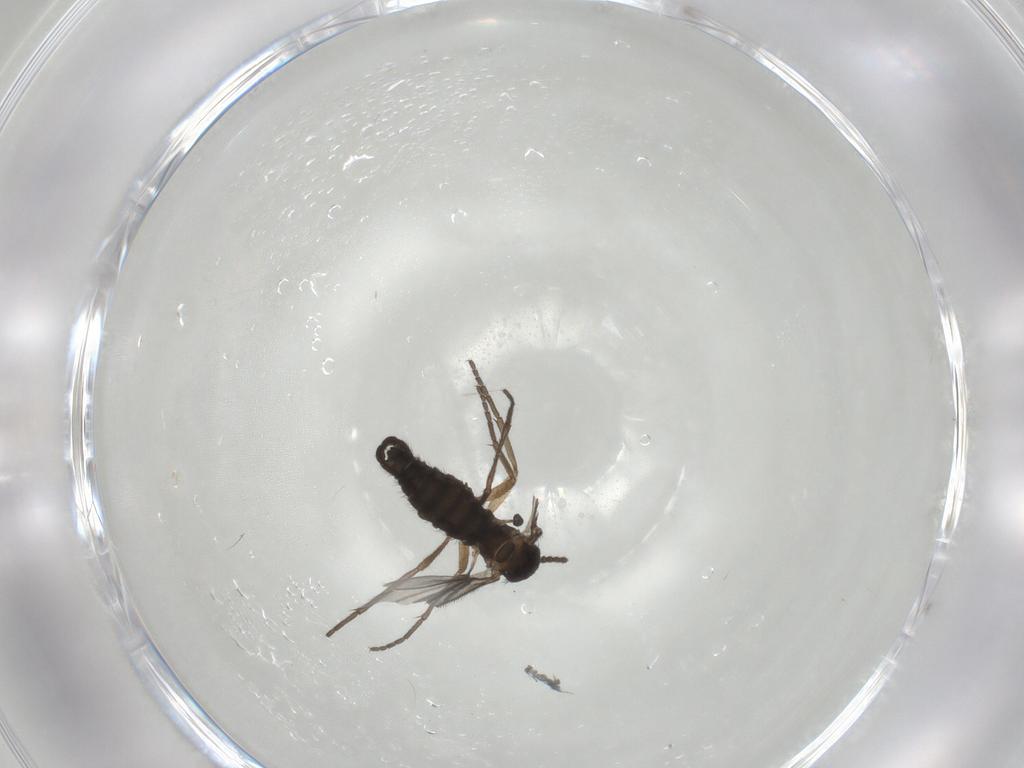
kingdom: Animalia
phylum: Arthropoda
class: Insecta
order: Diptera
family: Sciaridae
